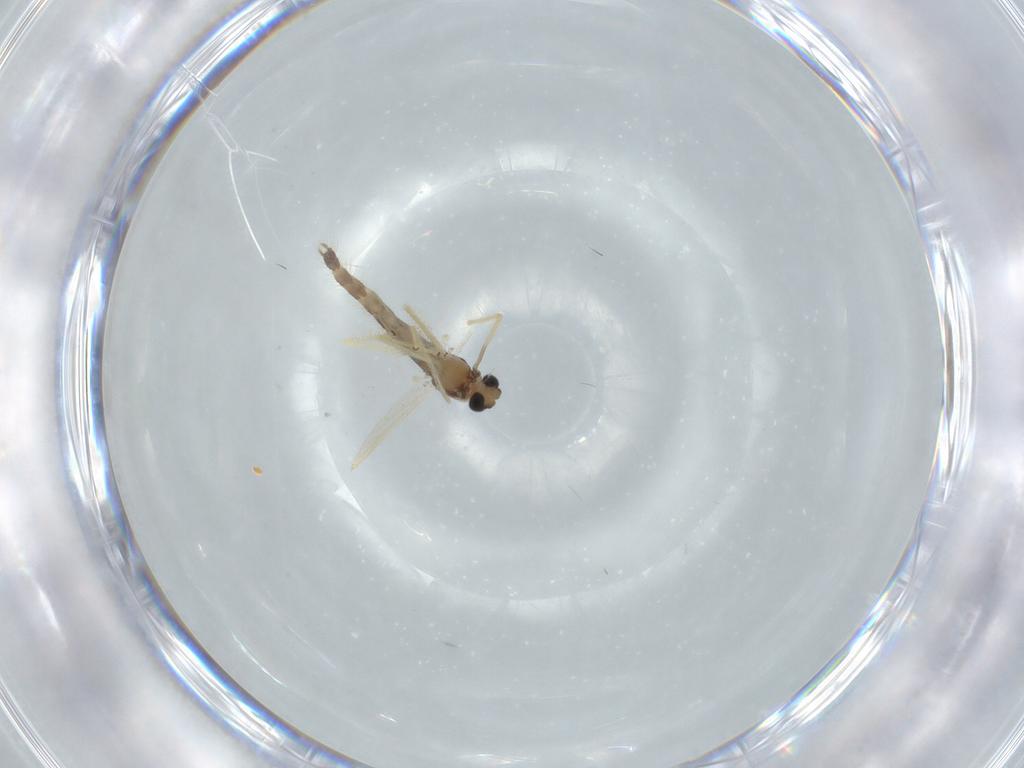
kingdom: Animalia
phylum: Arthropoda
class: Insecta
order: Diptera
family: Chironomidae
